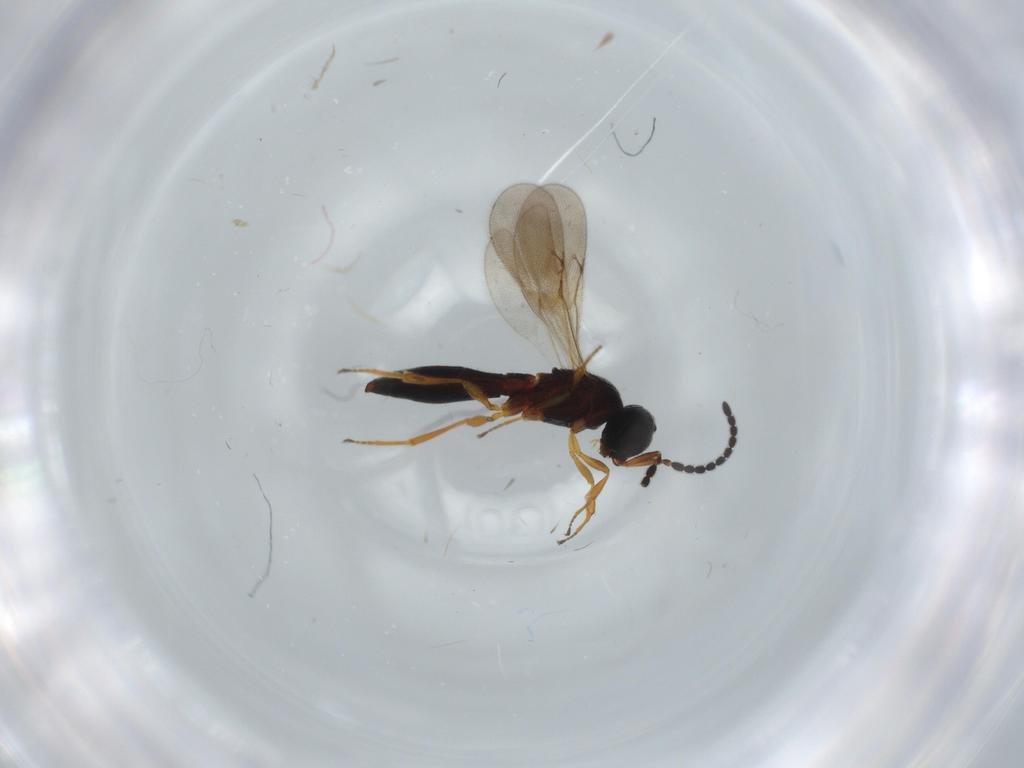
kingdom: Animalia
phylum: Arthropoda
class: Insecta
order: Hymenoptera
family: Scelionidae
